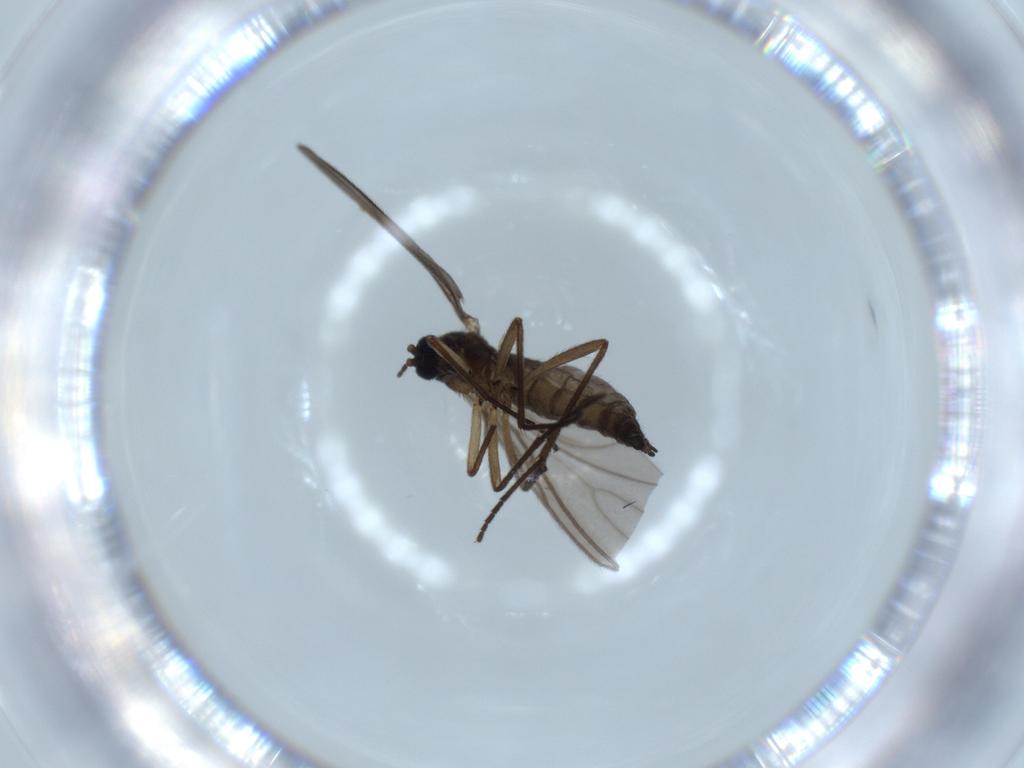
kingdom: Animalia
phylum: Arthropoda
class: Insecta
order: Diptera
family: Sciaridae
